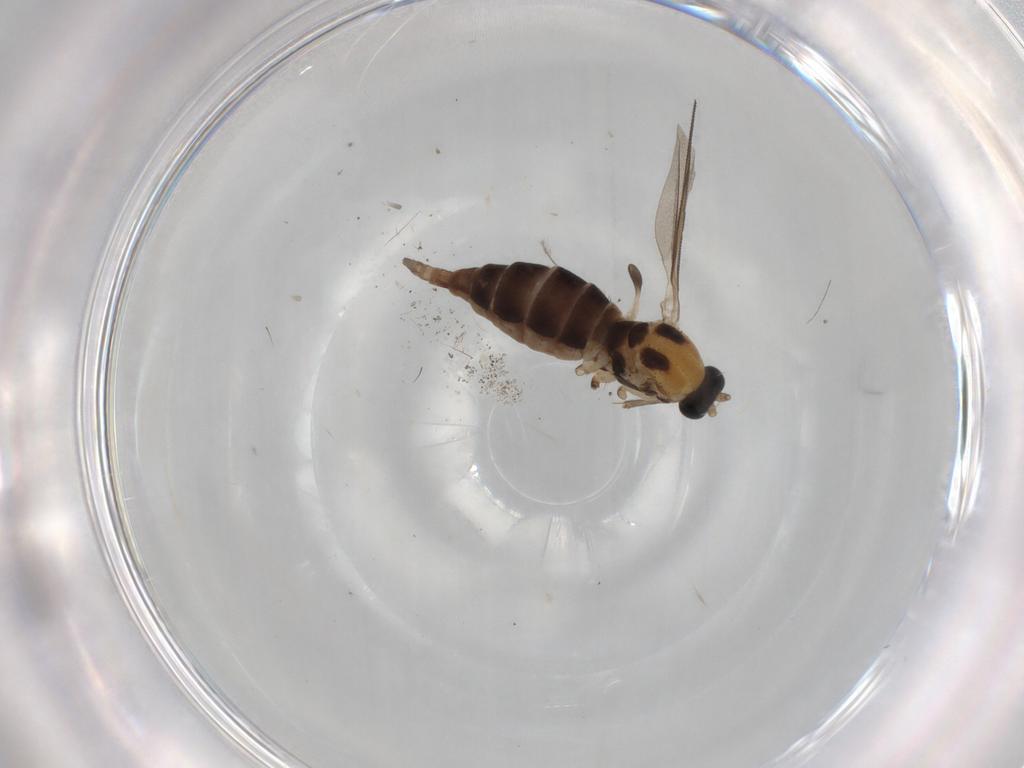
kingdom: Animalia
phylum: Arthropoda
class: Insecta
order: Diptera
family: Sciaridae
